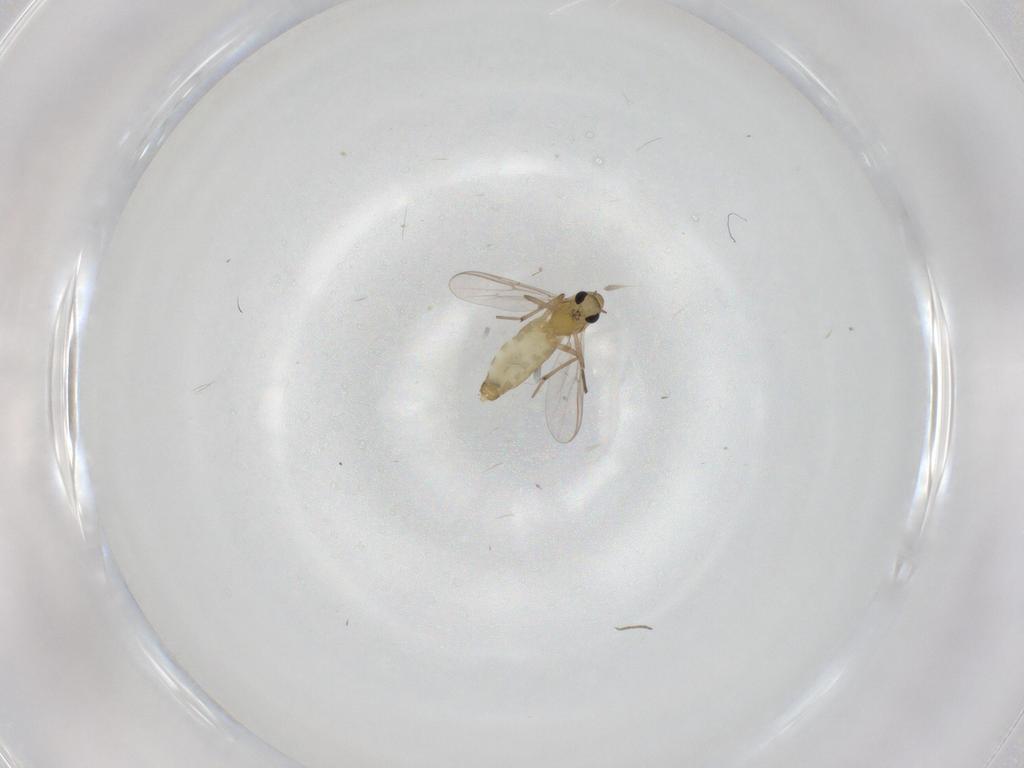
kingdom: Animalia
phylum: Arthropoda
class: Insecta
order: Diptera
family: Chironomidae
